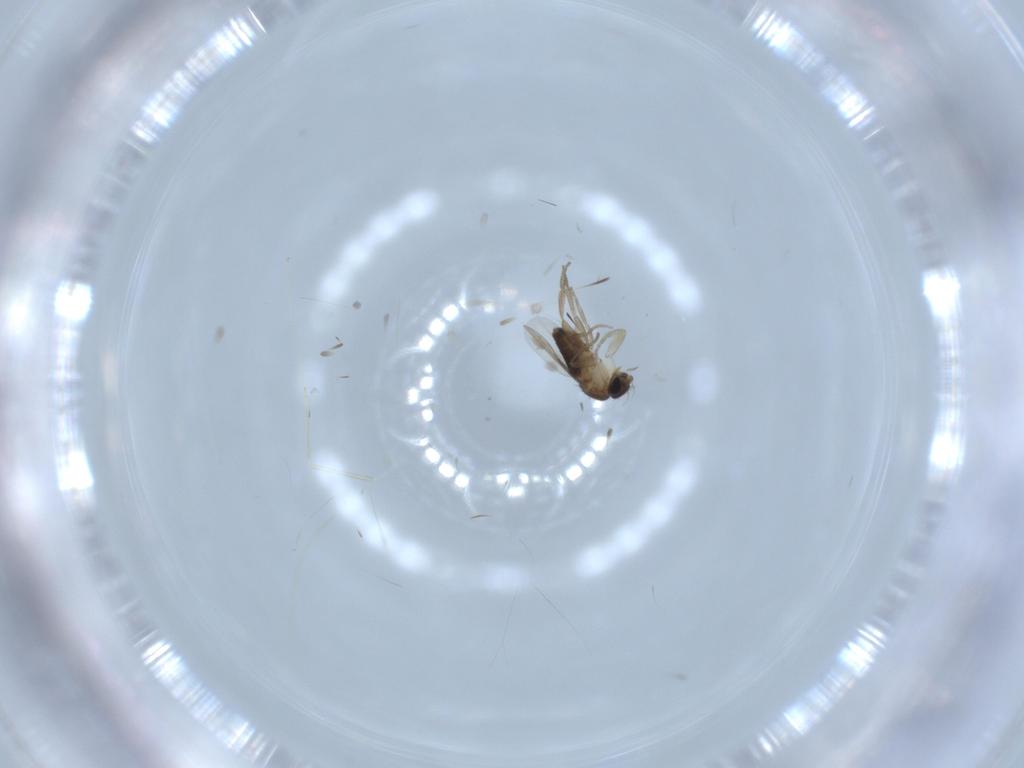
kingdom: Animalia
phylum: Arthropoda
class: Insecta
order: Diptera
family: Phoridae
